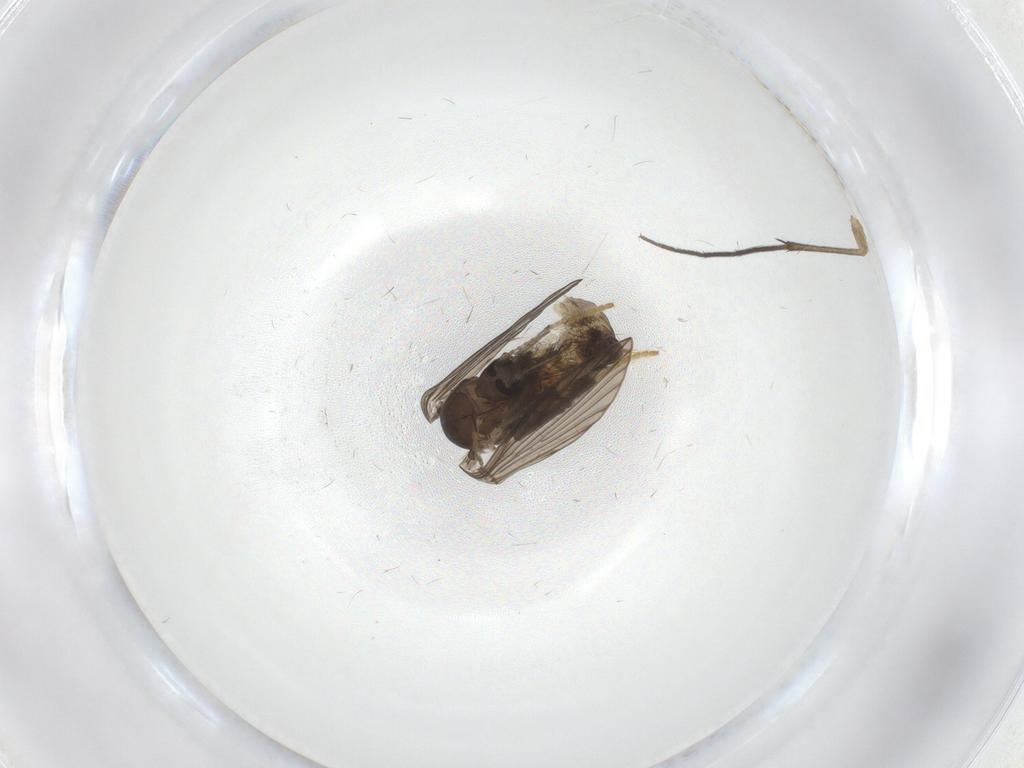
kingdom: Animalia
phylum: Arthropoda
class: Insecta
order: Diptera
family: Psychodidae
